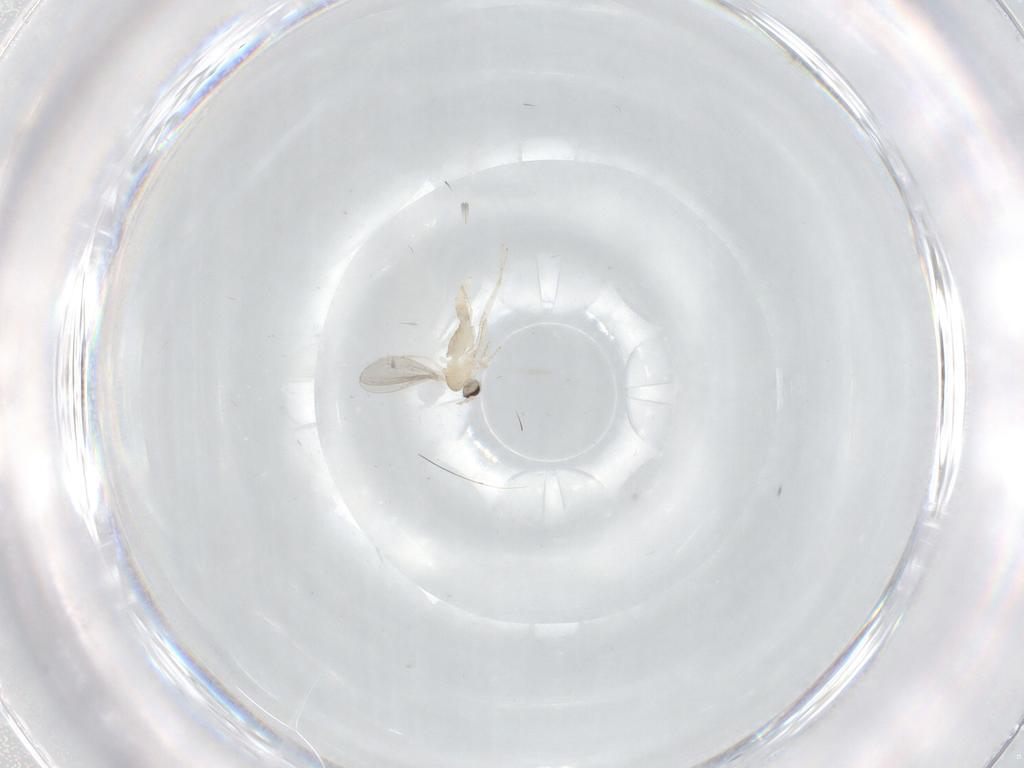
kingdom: Animalia
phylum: Arthropoda
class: Insecta
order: Diptera
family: Cecidomyiidae
